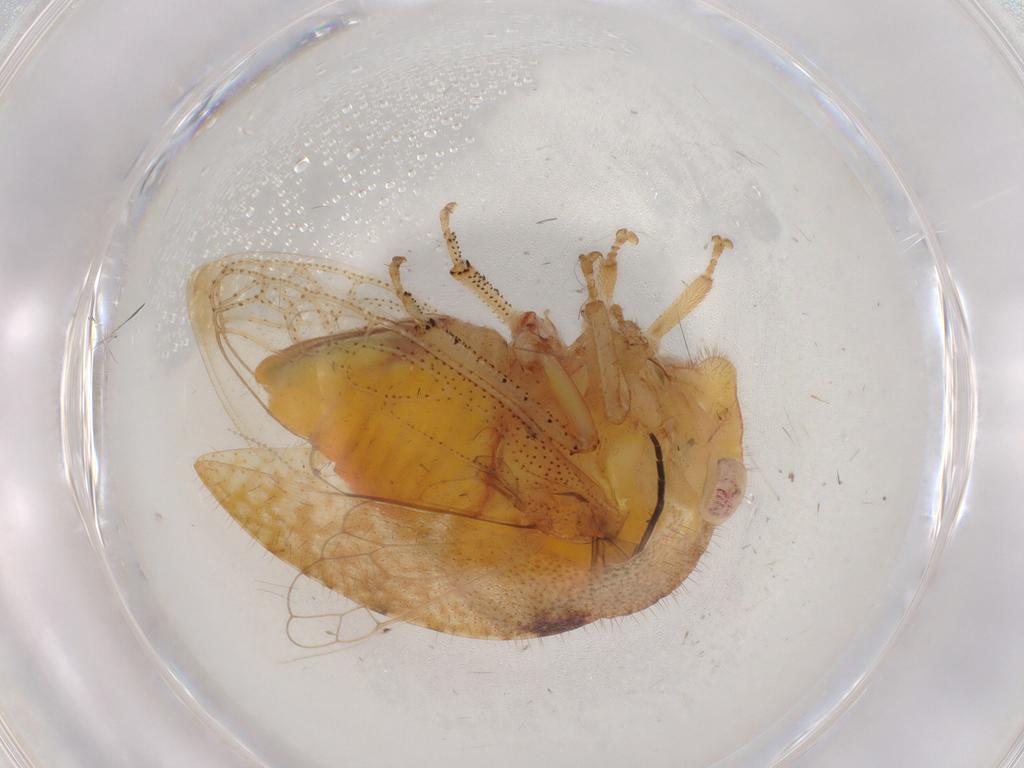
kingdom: Animalia
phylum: Arthropoda
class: Insecta
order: Hemiptera
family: Membracidae
